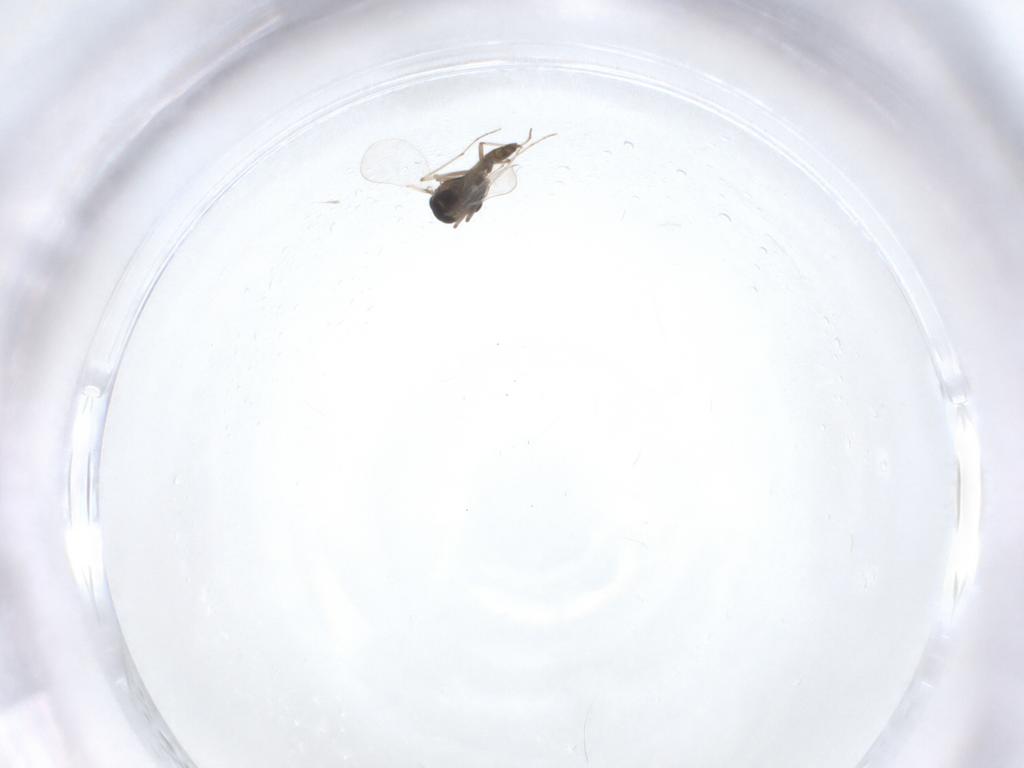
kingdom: Animalia
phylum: Arthropoda
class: Insecta
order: Diptera
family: Chironomidae
